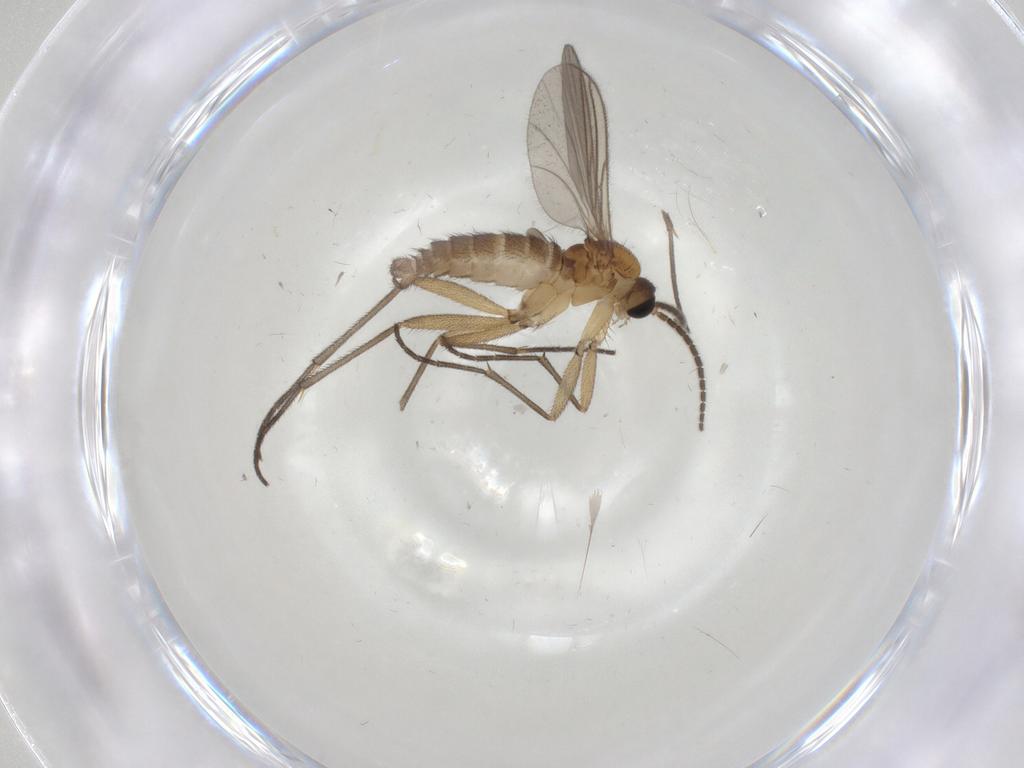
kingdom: Animalia
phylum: Arthropoda
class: Insecta
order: Diptera
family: Sciaridae
